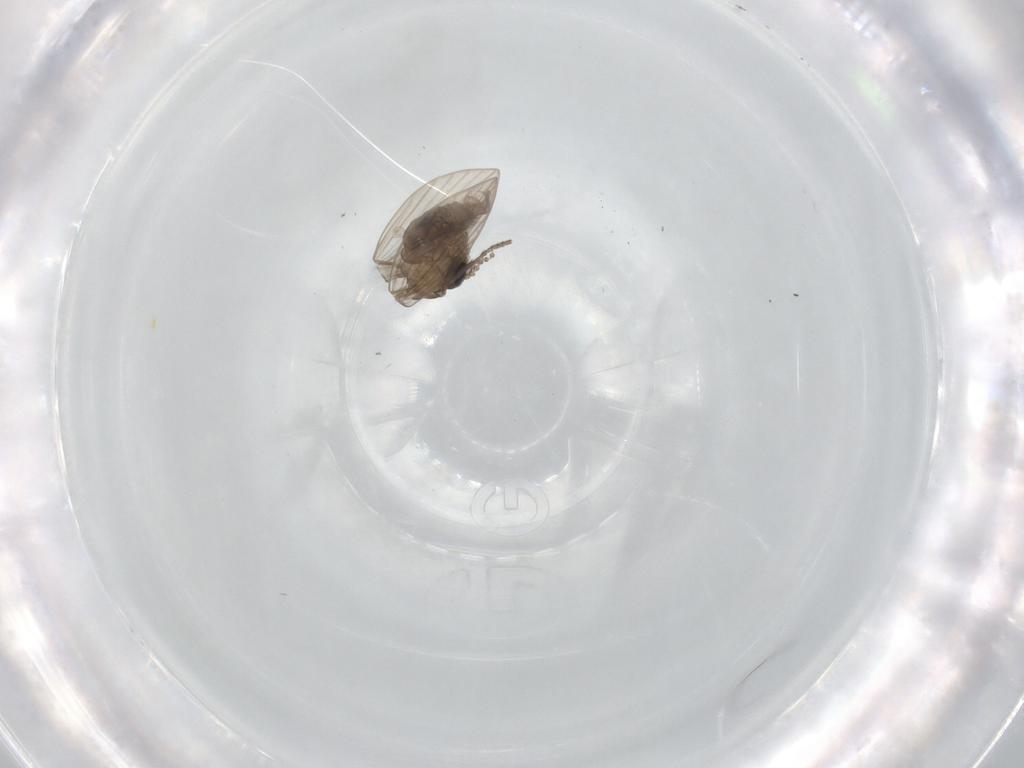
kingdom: Animalia
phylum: Arthropoda
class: Insecta
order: Diptera
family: Psychodidae
